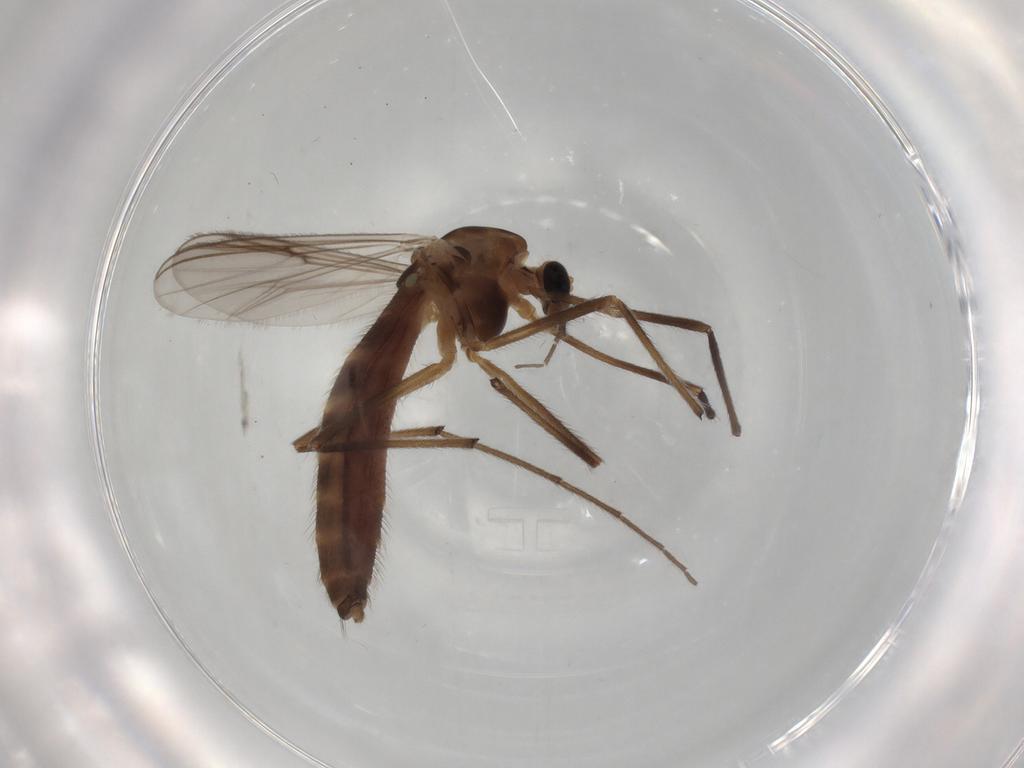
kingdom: Animalia
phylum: Arthropoda
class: Insecta
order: Diptera
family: Chironomidae
